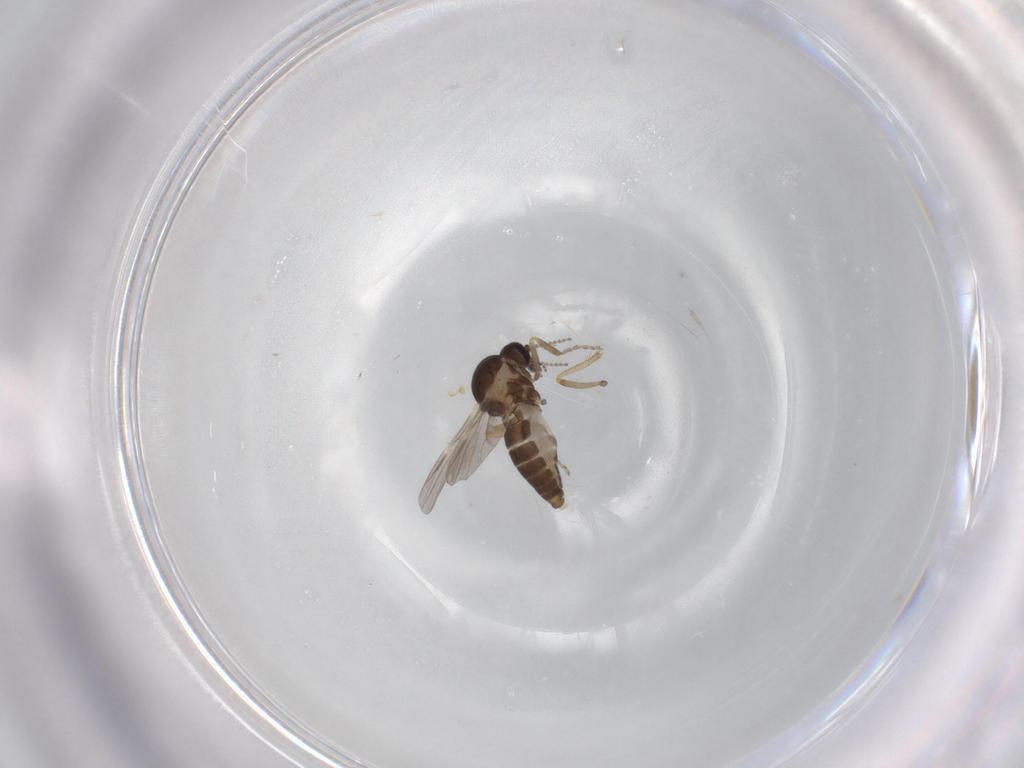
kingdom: Animalia
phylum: Arthropoda
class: Insecta
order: Diptera
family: Ceratopogonidae
